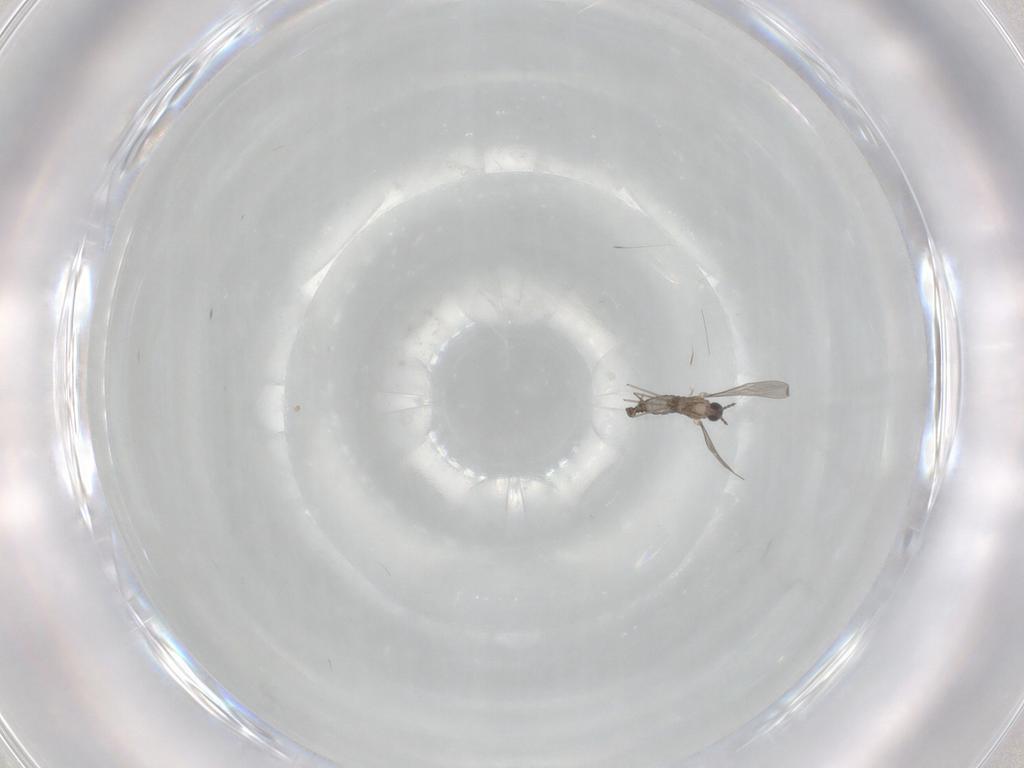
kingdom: Animalia
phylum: Arthropoda
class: Insecta
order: Diptera
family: Cecidomyiidae
